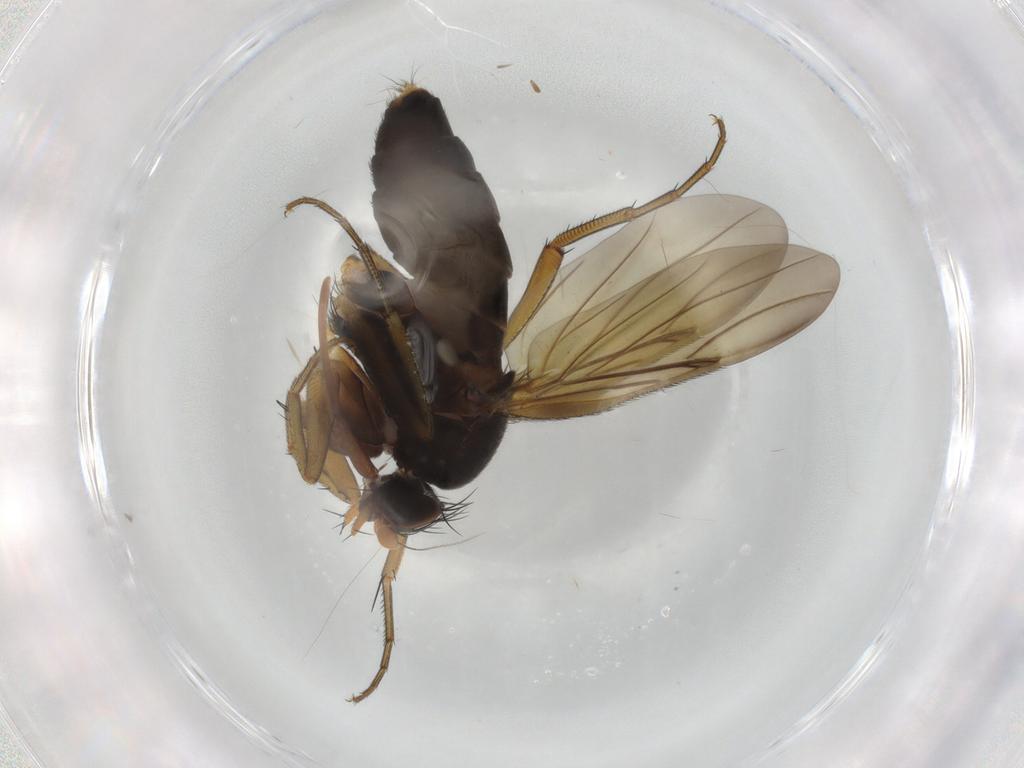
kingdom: Animalia
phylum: Arthropoda
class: Insecta
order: Diptera
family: Phoridae
